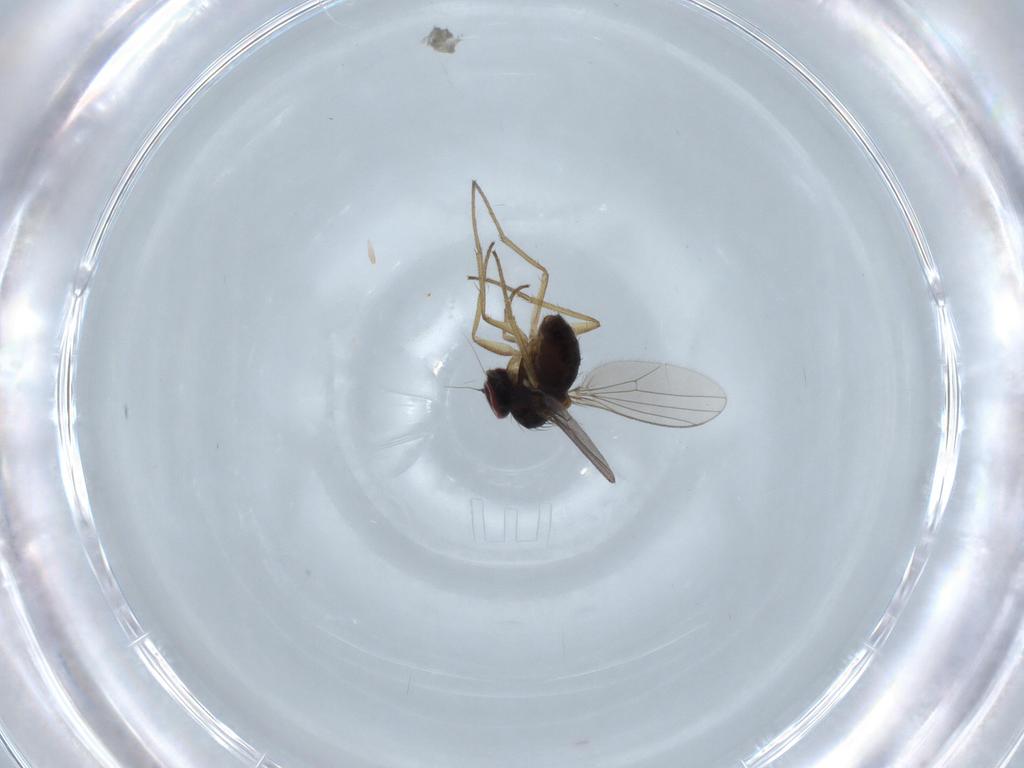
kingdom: Animalia
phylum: Arthropoda
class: Insecta
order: Diptera
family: Dolichopodidae
